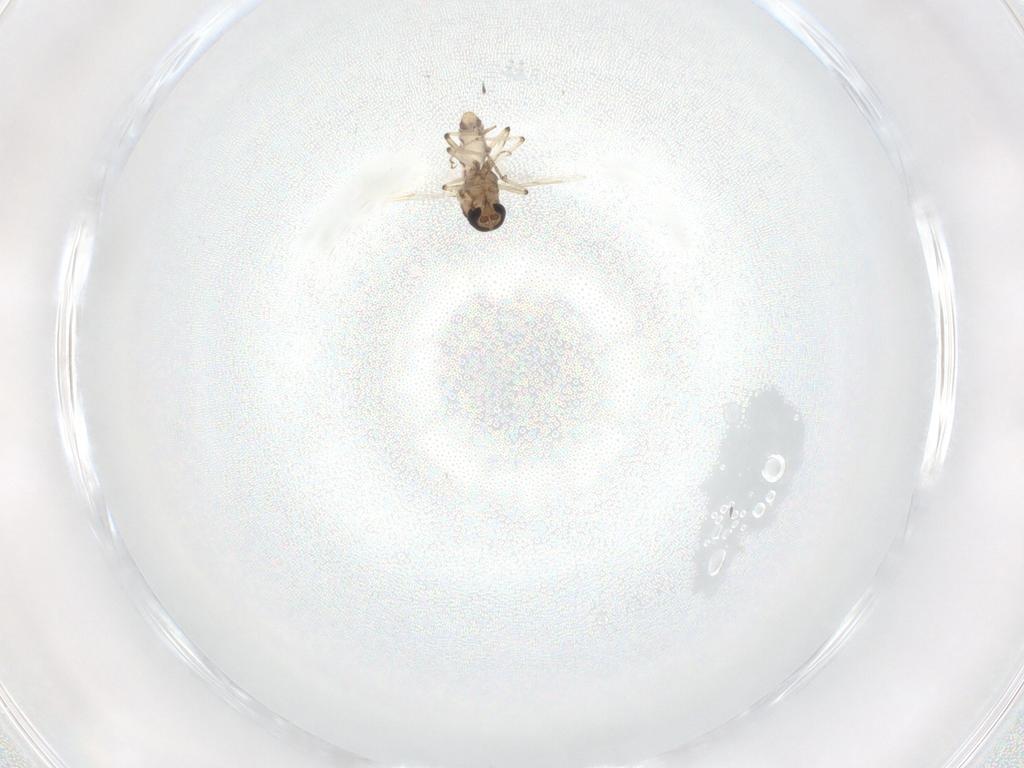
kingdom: Animalia
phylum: Arthropoda
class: Insecta
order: Diptera
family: Ceratopogonidae
